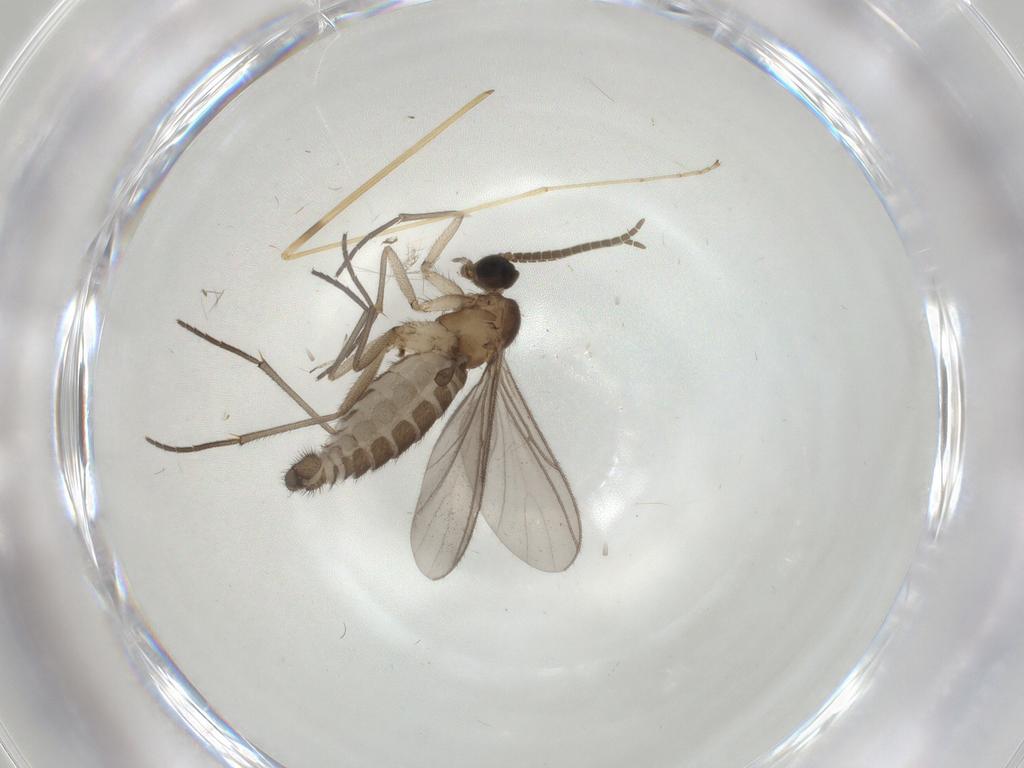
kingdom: Animalia
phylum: Arthropoda
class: Insecta
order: Diptera
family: Limoniidae
